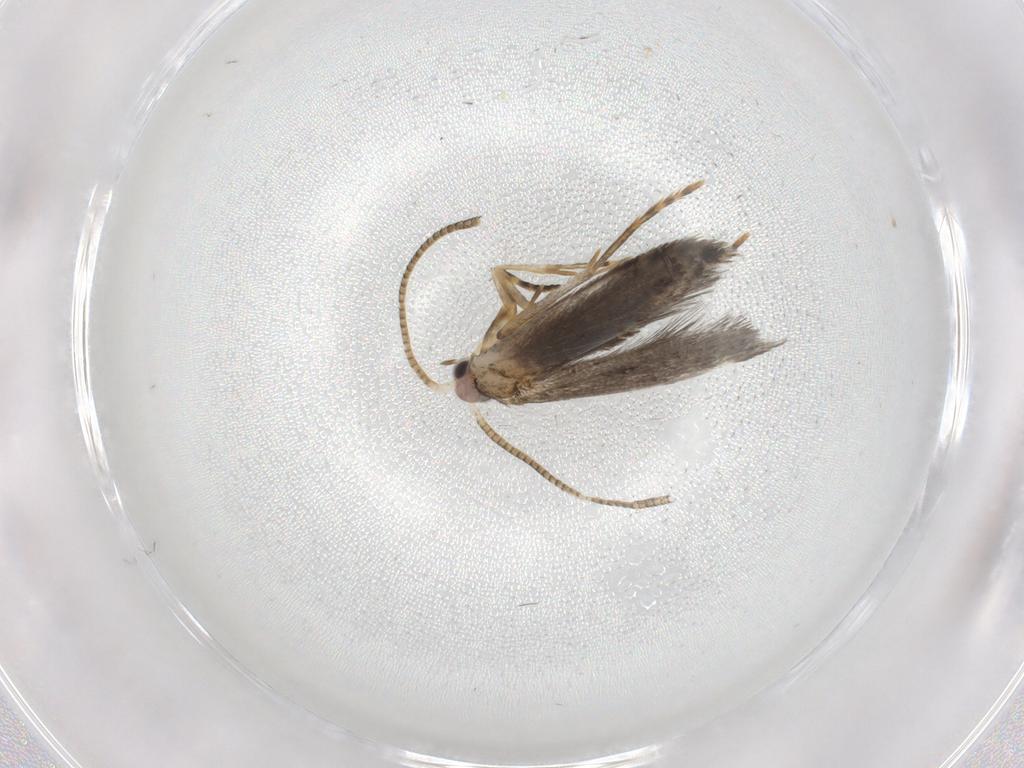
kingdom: Animalia
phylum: Arthropoda
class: Insecta
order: Lepidoptera
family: Tineidae
